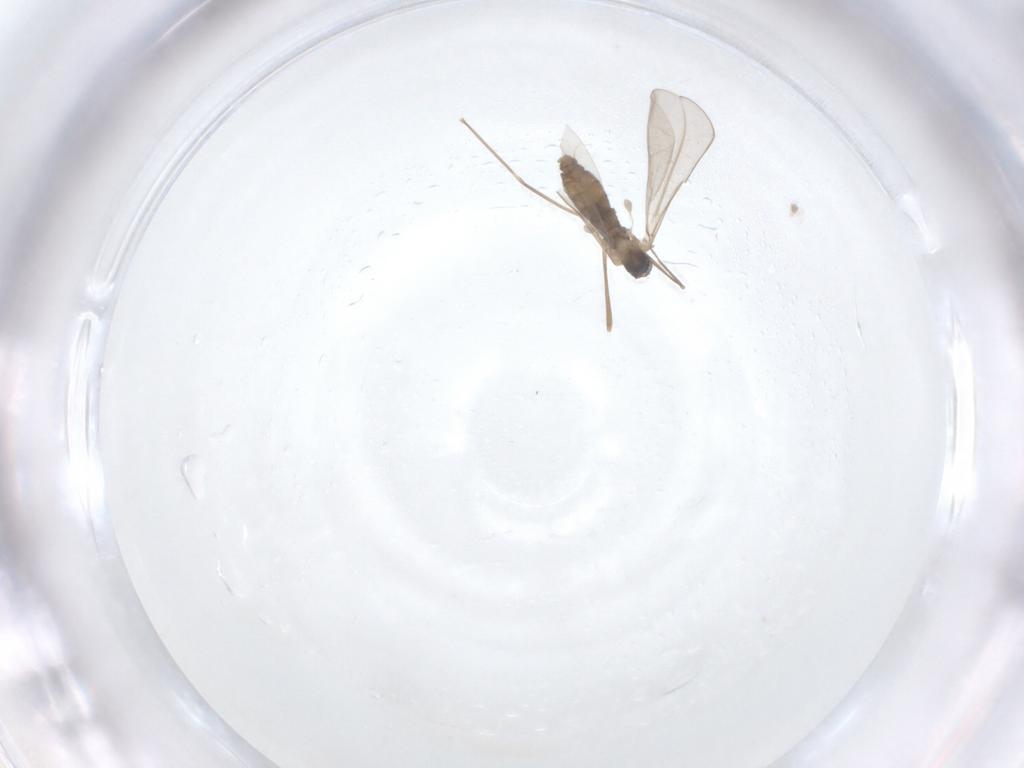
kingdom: Animalia
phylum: Arthropoda
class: Insecta
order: Diptera
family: Cecidomyiidae
